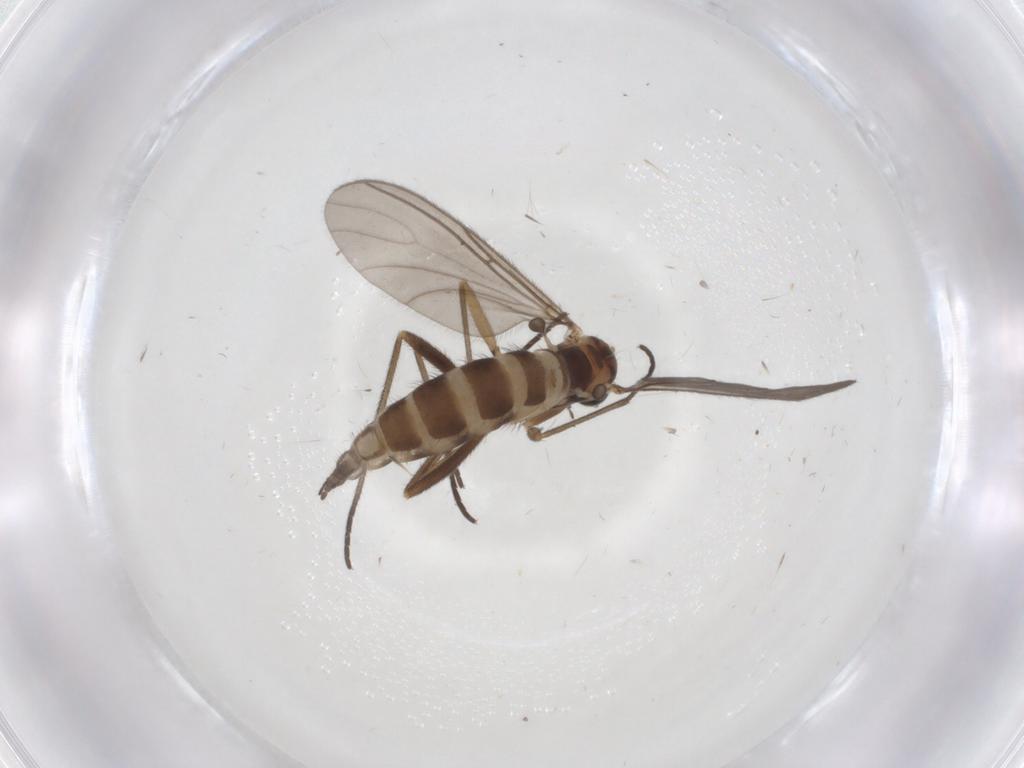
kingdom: Animalia
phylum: Arthropoda
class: Insecta
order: Diptera
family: Sciaridae
